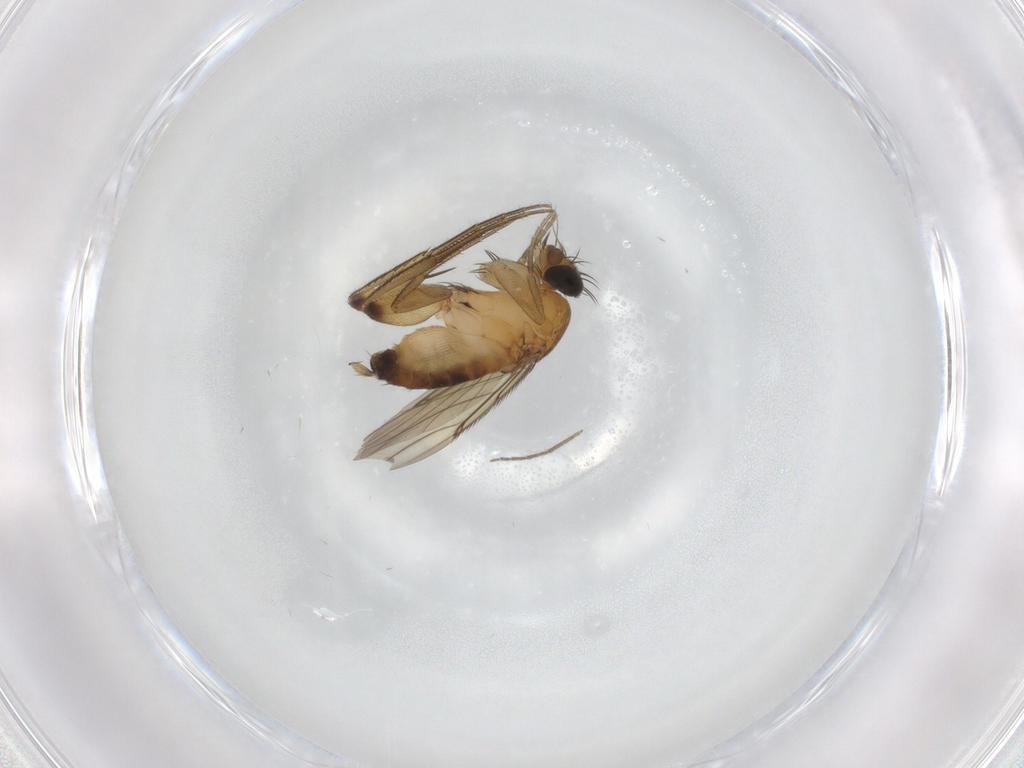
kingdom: Animalia
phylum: Arthropoda
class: Insecta
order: Diptera
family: Phoridae
